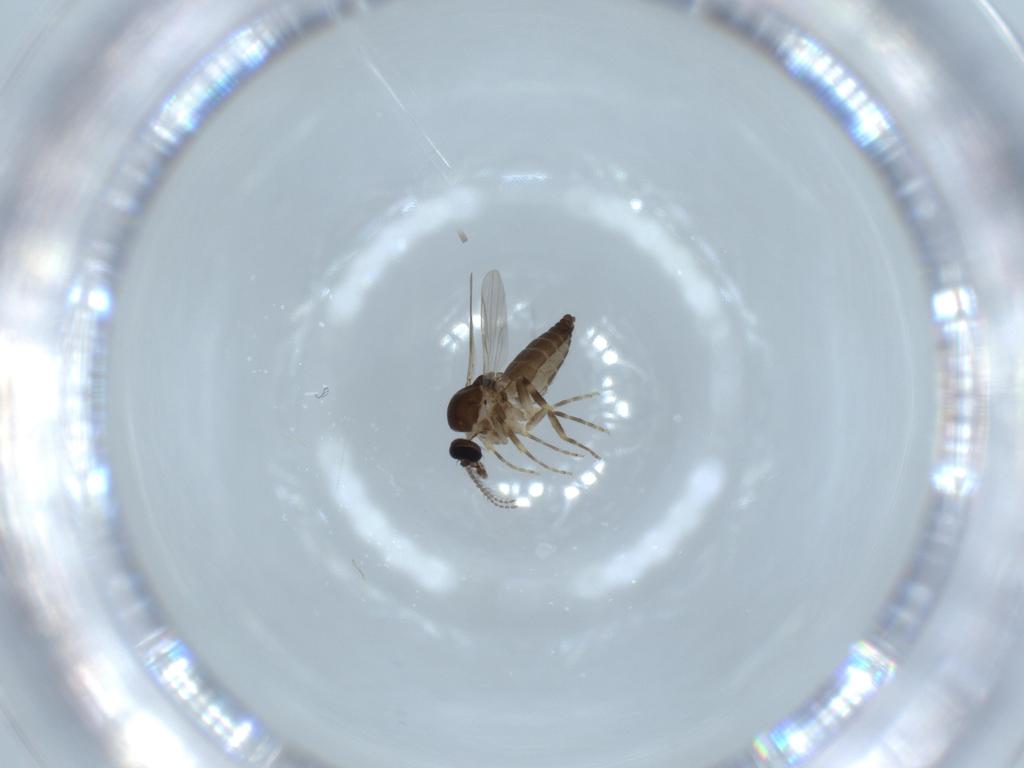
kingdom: Animalia
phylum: Arthropoda
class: Insecta
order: Diptera
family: Ceratopogonidae
